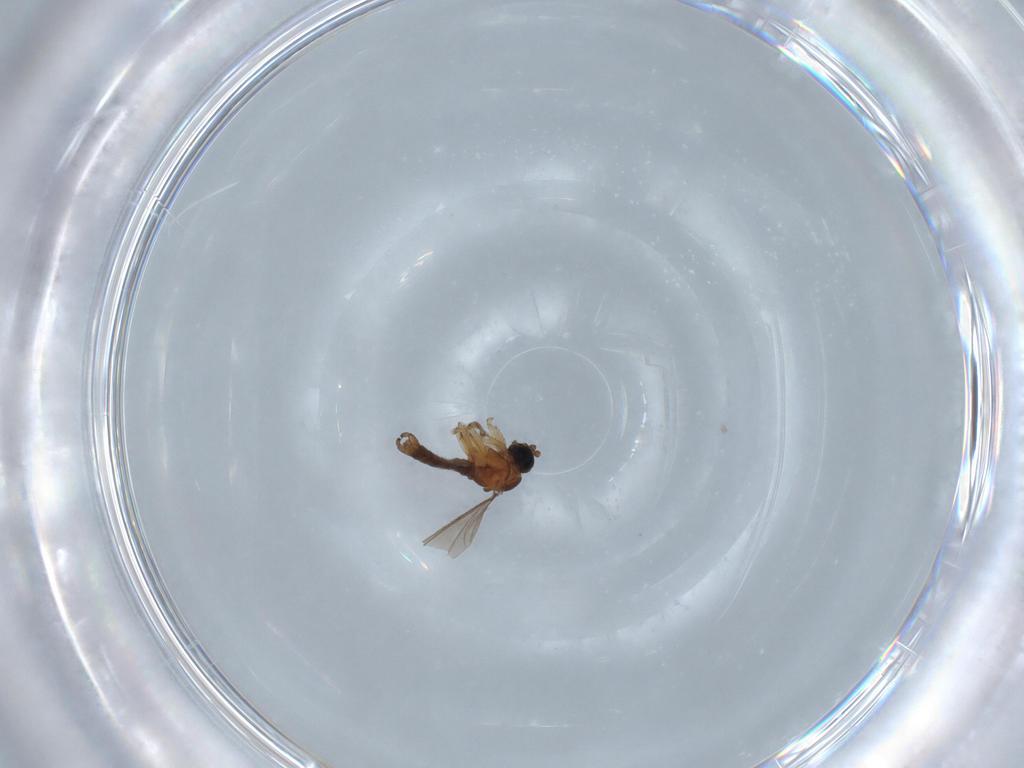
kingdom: Animalia
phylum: Arthropoda
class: Insecta
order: Diptera
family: Sciaridae
